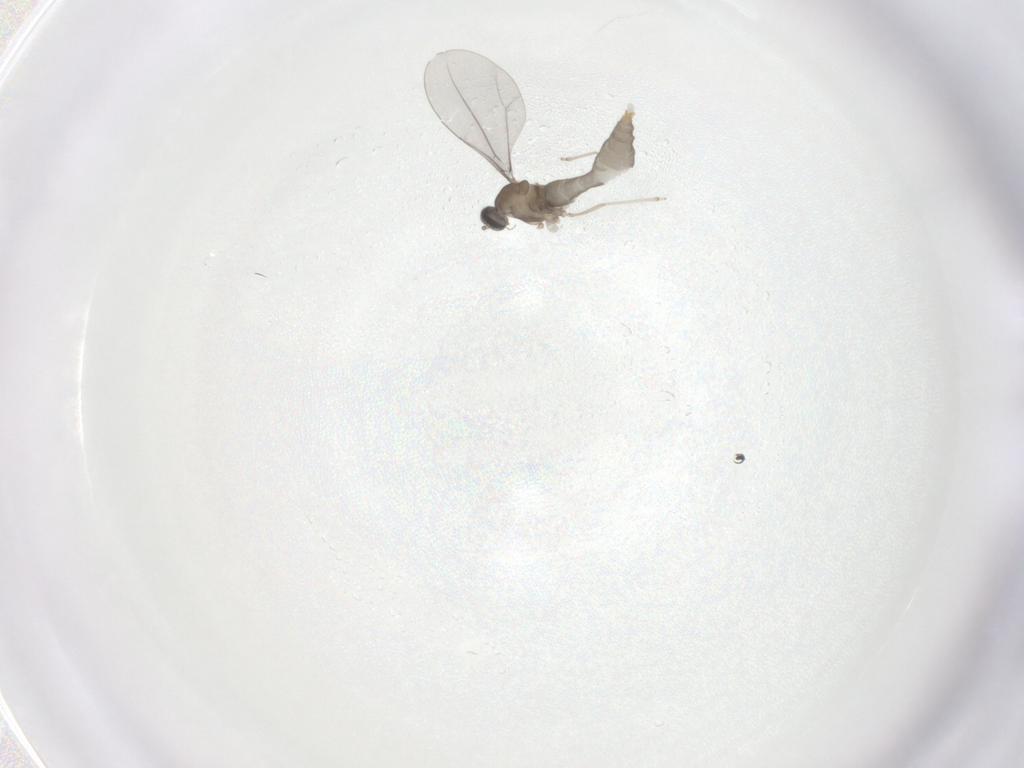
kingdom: Animalia
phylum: Arthropoda
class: Insecta
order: Diptera
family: Cecidomyiidae
